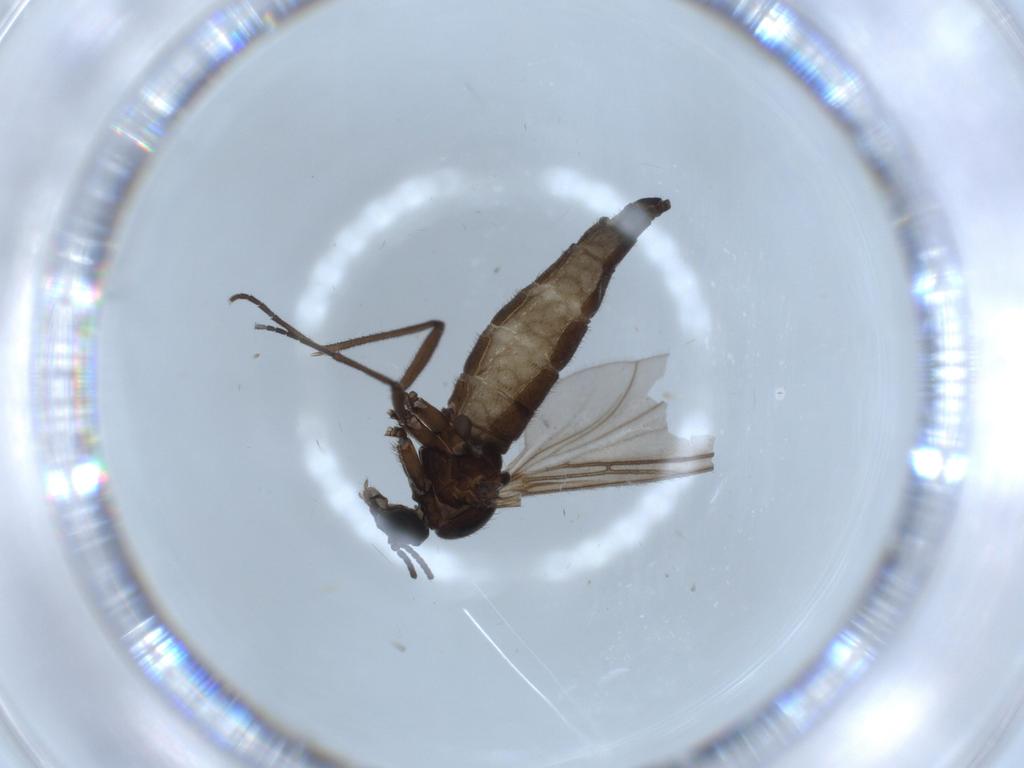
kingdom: Animalia
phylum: Arthropoda
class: Insecta
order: Diptera
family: Sciaridae
